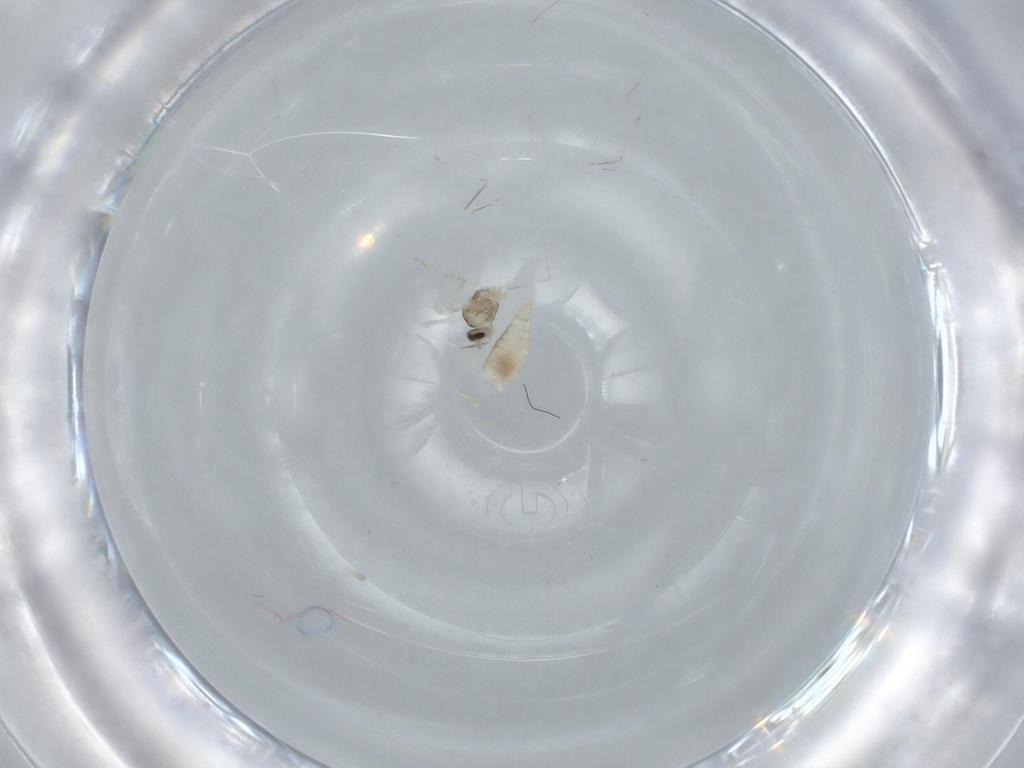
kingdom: Animalia
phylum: Arthropoda
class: Insecta
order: Diptera
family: Cecidomyiidae
